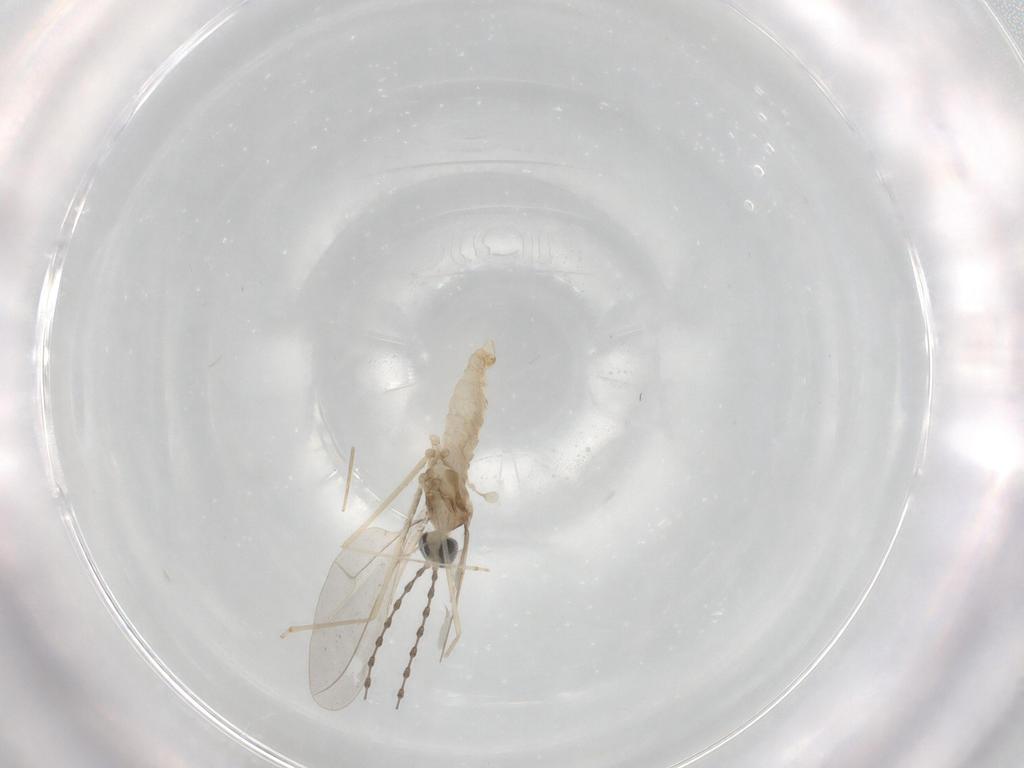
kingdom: Animalia
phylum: Arthropoda
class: Insecta
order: Diptera
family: Cecidomyiidae
